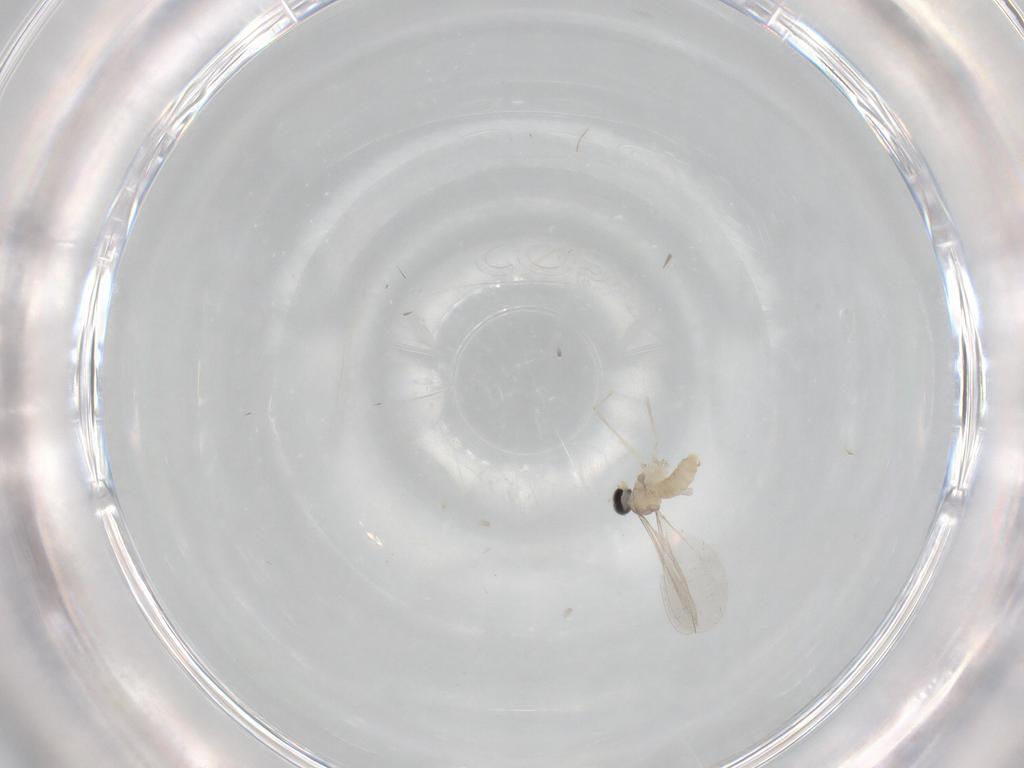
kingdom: Animalia
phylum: Arthropoda
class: Insecta
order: Diptera
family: Cecidomyiidae
